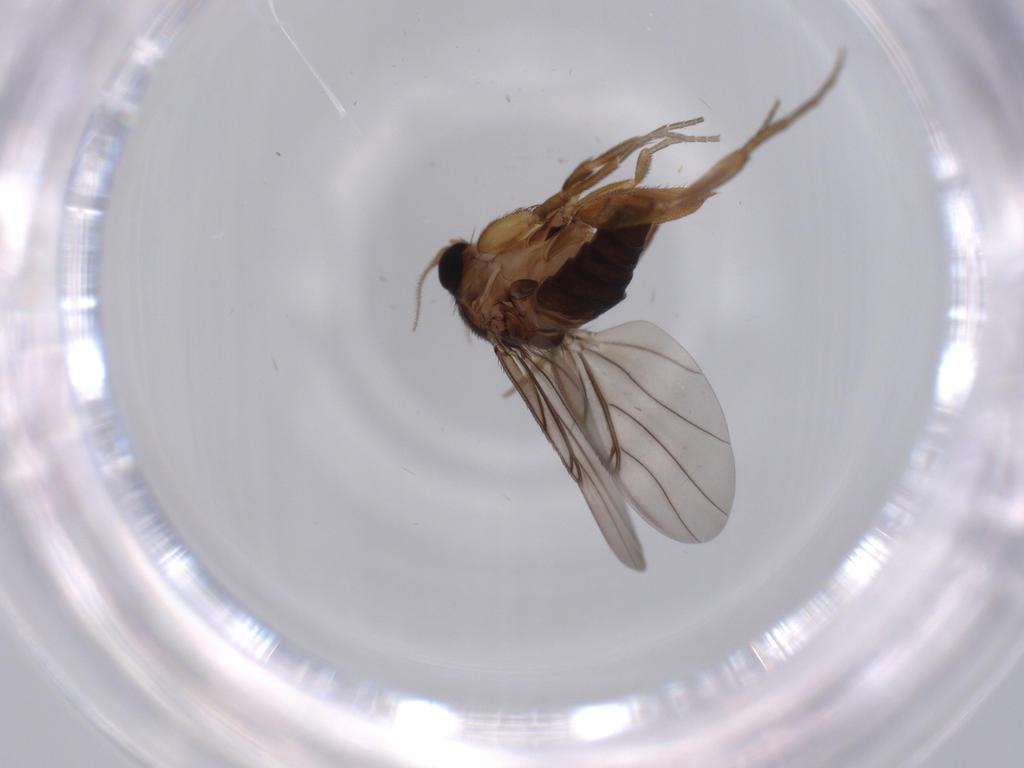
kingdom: Animalia
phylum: Arthropoda
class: Insecta
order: Diptera
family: Phoridae
